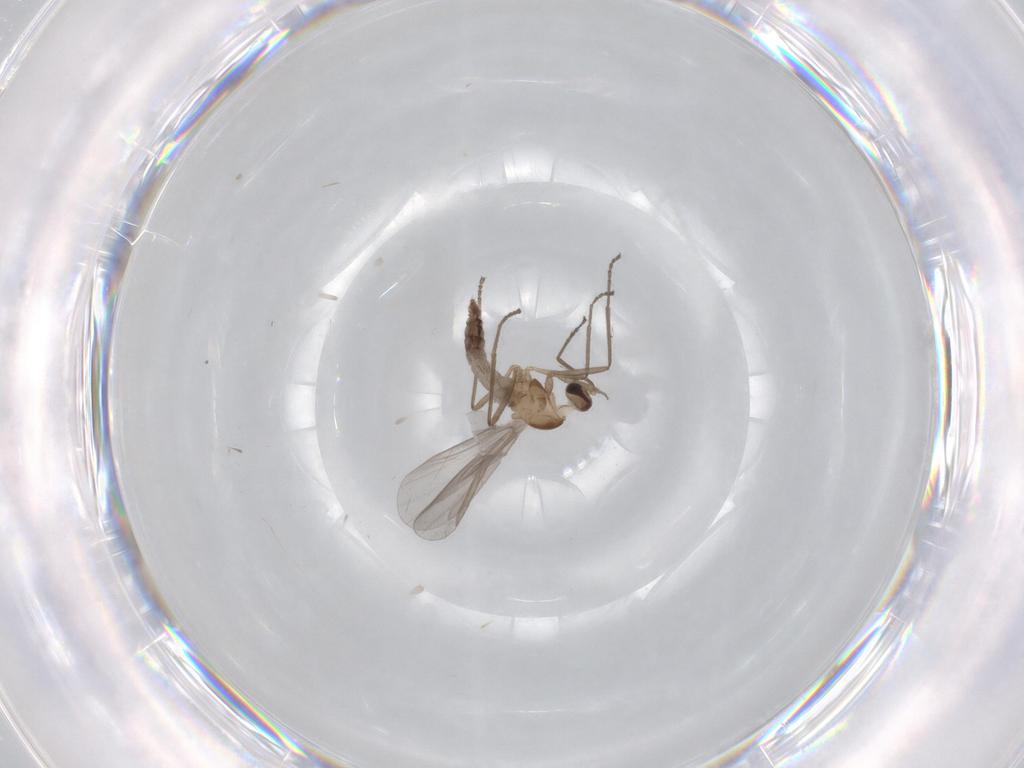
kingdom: Animalia
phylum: Arthropoda
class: Insecta
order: Diptera
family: Cecidomyiidae
